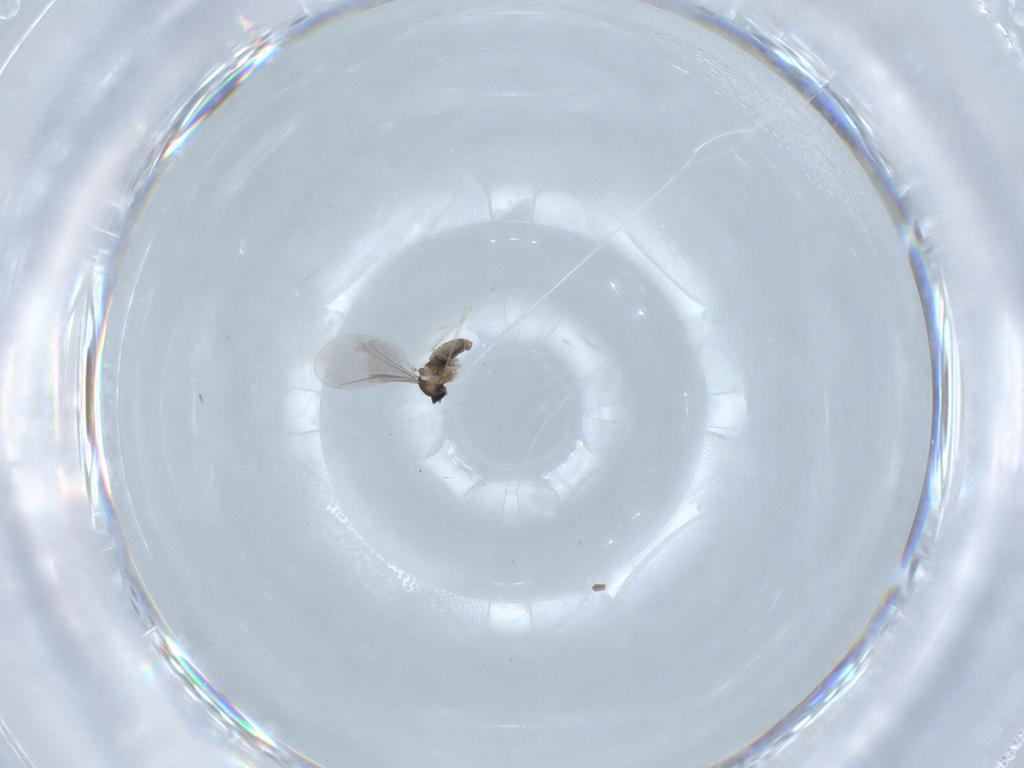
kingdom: Animalia
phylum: Arthropoda
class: Insecta
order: Diptera
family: Cecidomyiidae
